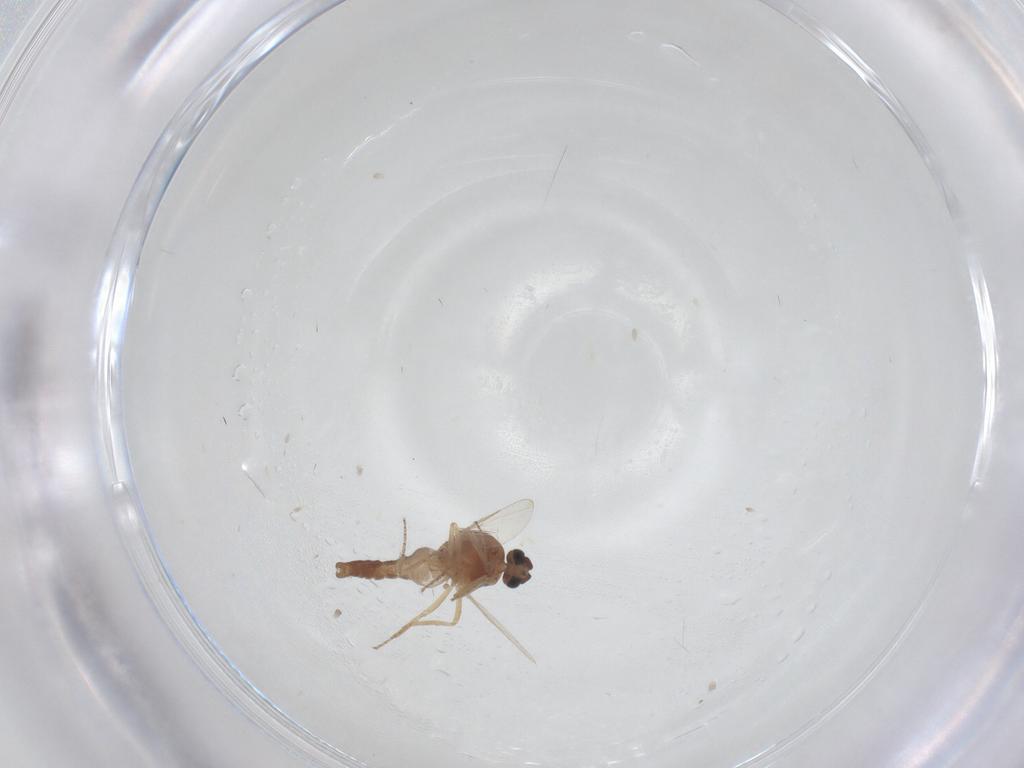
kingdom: Animalia
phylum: Arthropoda
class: Insecta
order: Diptera
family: Ceratopogonidae
